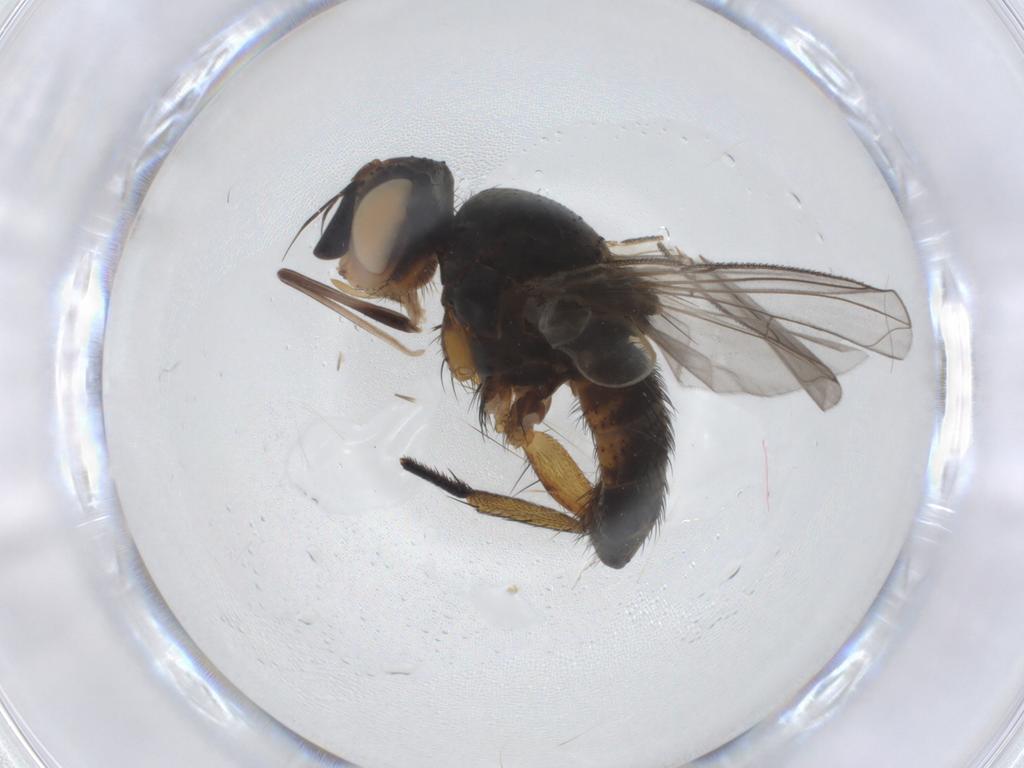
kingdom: Animalia
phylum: Arthropoda
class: Insecta
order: Diptera
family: Tachinidae
